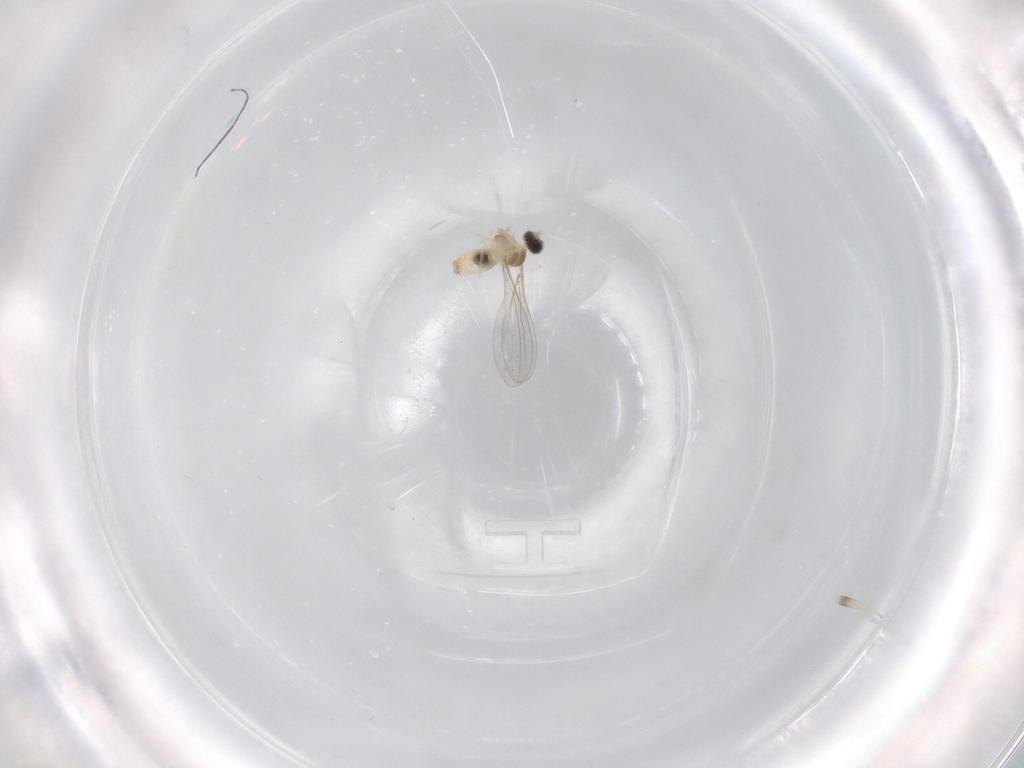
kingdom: Animalia
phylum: Arthropoda
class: Insecta
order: Diptera
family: Cecidomyiidae
